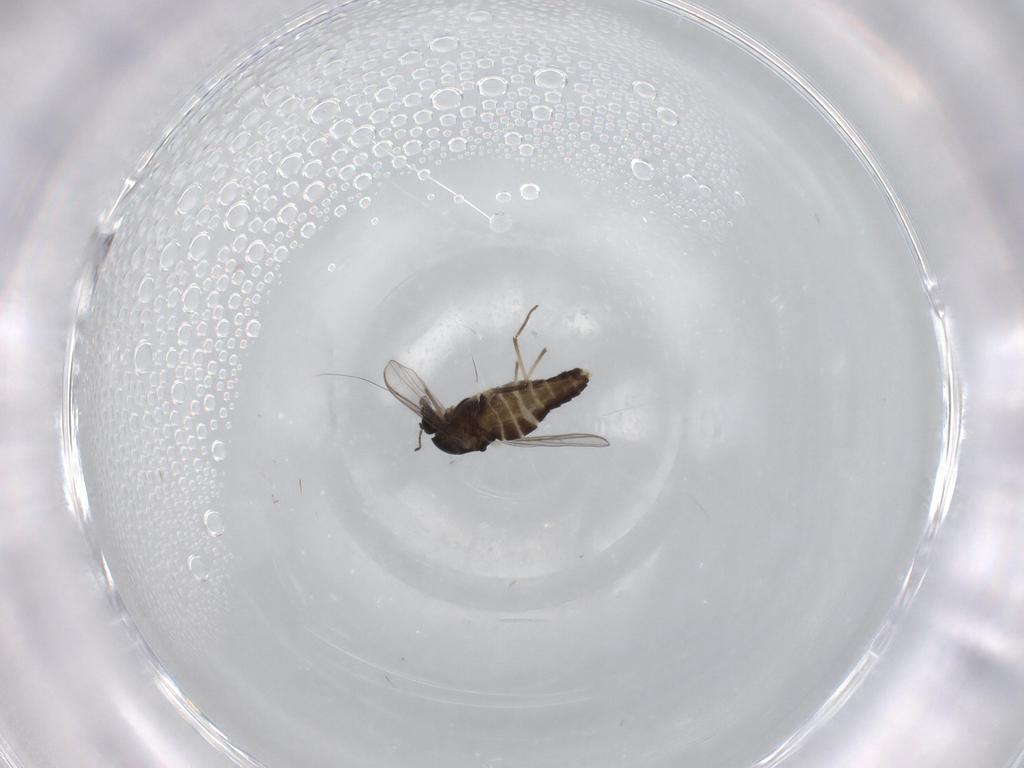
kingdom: Animalia
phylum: Arthropoda
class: Insecta
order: Diptera
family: Chironomidae
